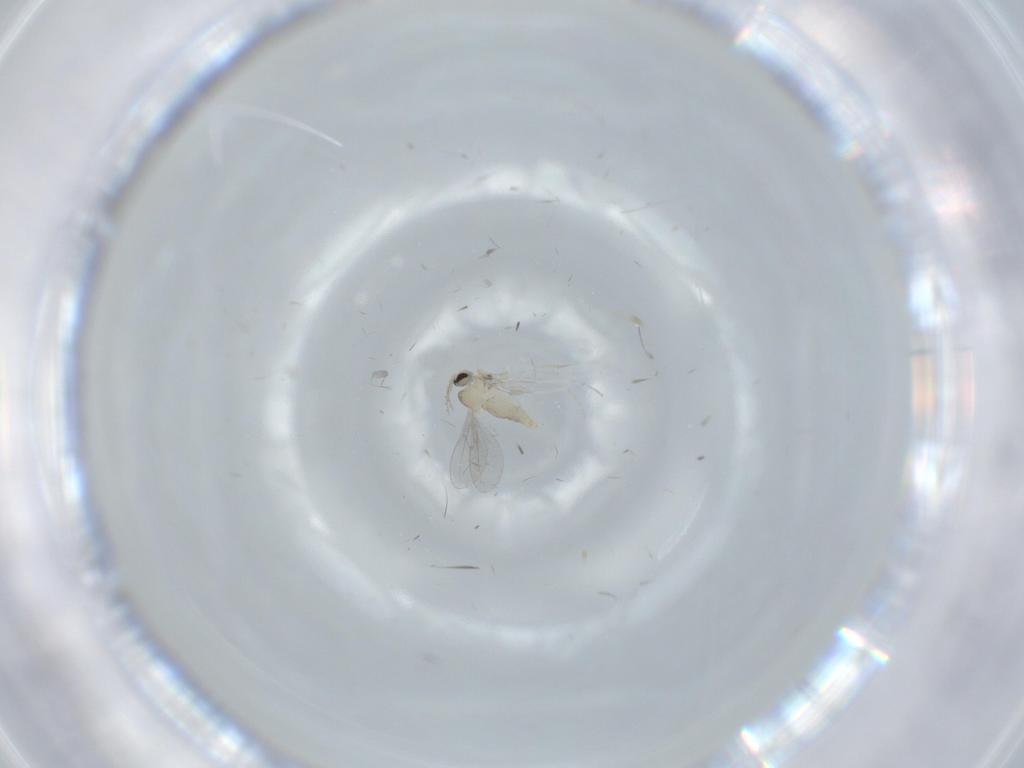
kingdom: Animalia
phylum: Arthropoda
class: Insecta
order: Diptera
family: Cecidomyiidae
